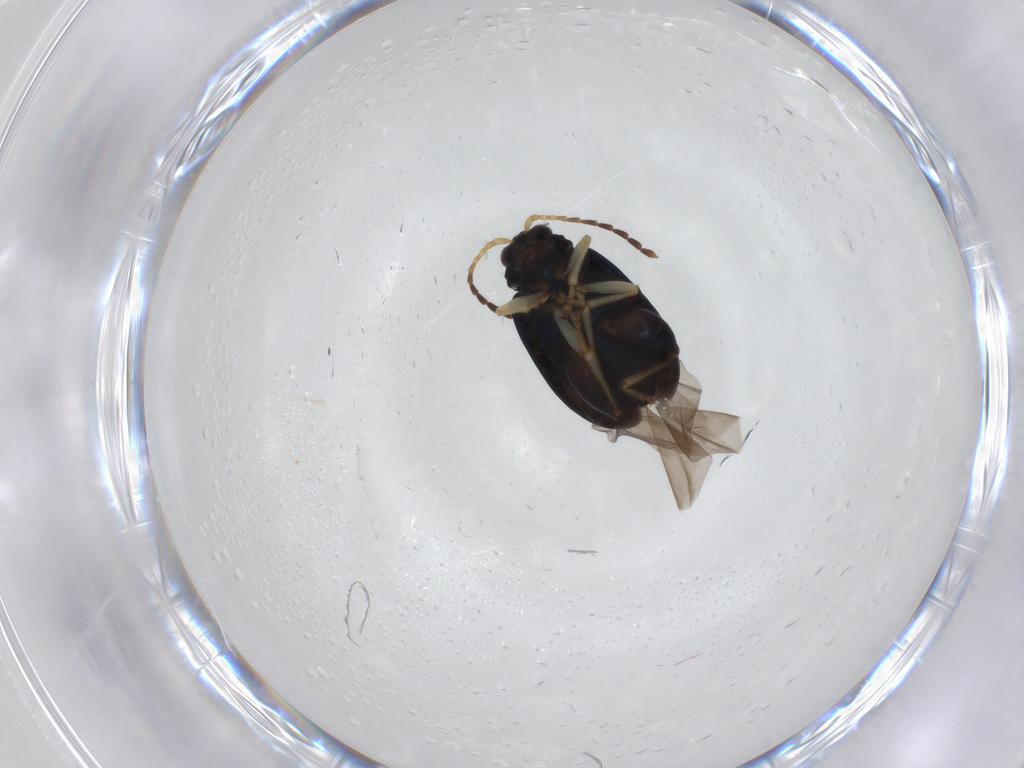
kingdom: Animalia
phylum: Arthropoda
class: Insecta
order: Coleoptera
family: Chrysomelidae
